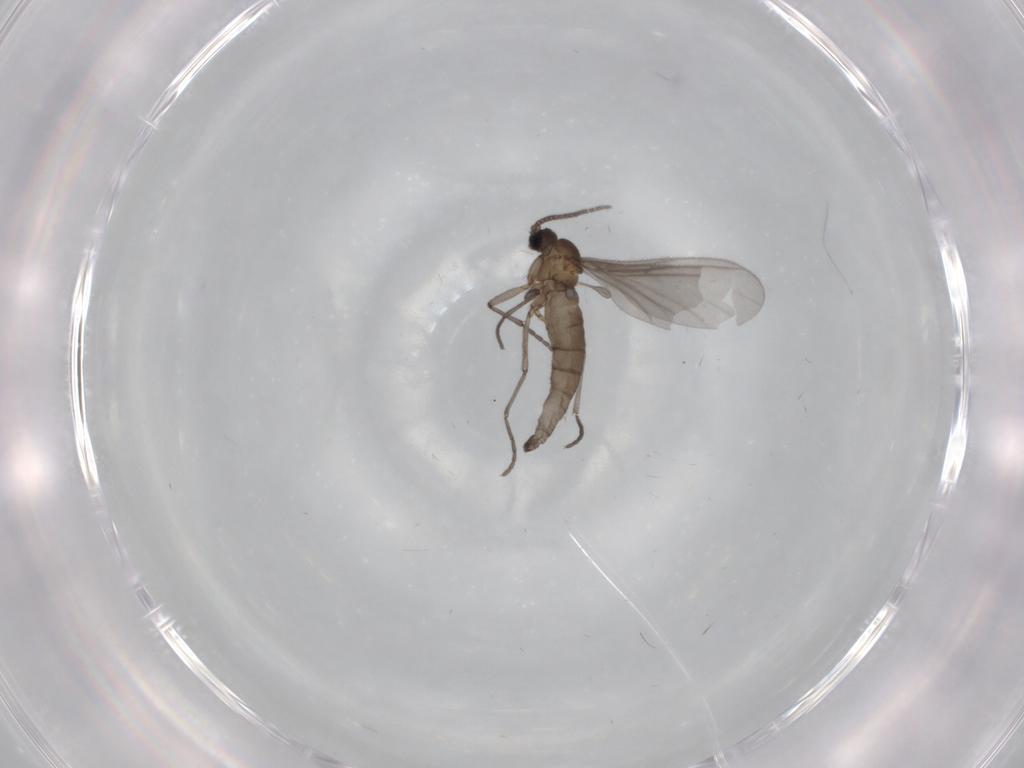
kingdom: Animalia
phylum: Arthropoda
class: Insecta
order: Diptera
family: Sciaridae
